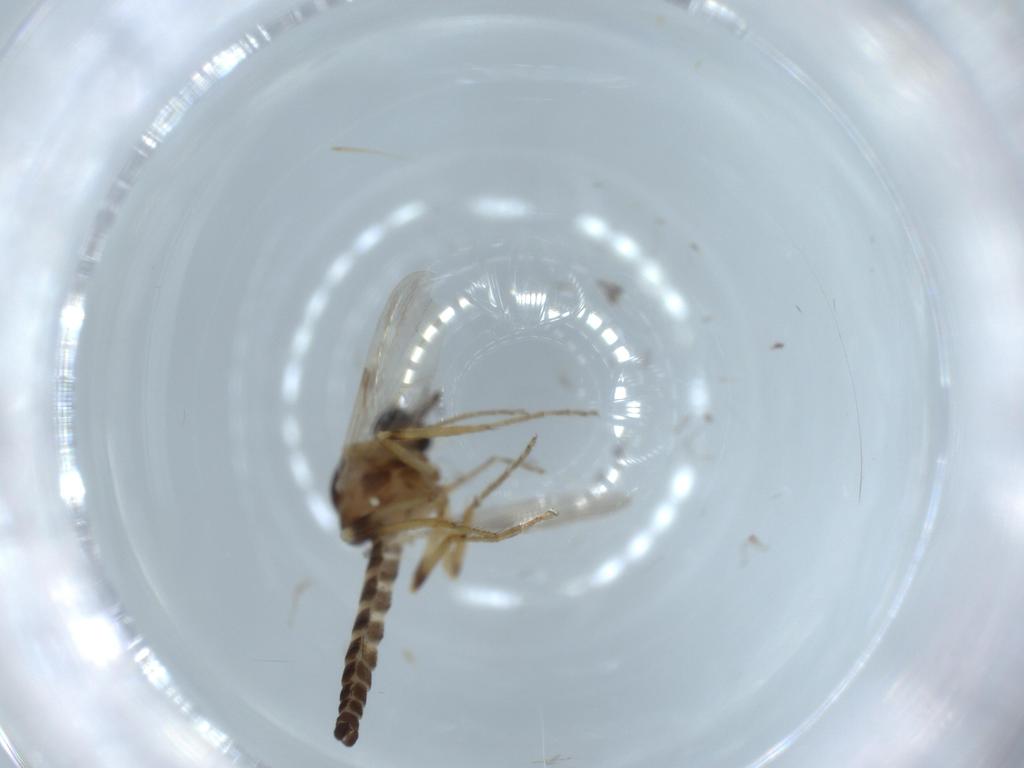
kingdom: Animalia
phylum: Arthropoda
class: Insecta
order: Diptera
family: Ceratopogonidae
